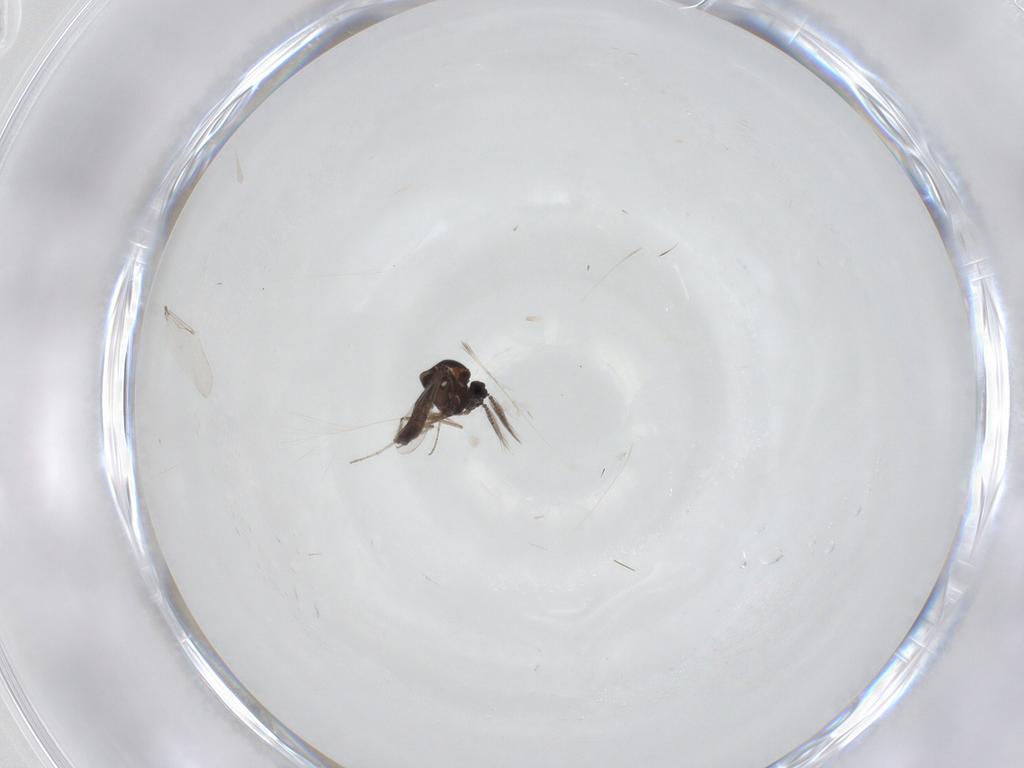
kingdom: Animalia
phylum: Arthropoda
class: Insecta
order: Diptera
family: Ceratopogonidae
